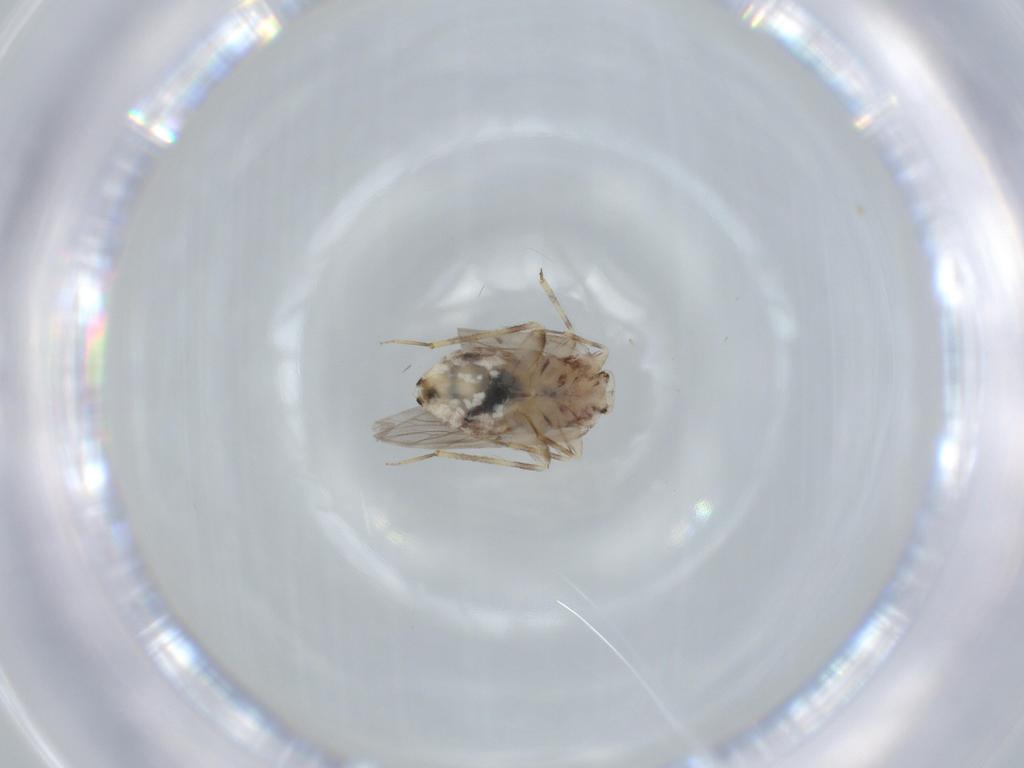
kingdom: Animalia
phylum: Arthropoda
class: Insecta
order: Psocodea
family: Lepidopsocidae
